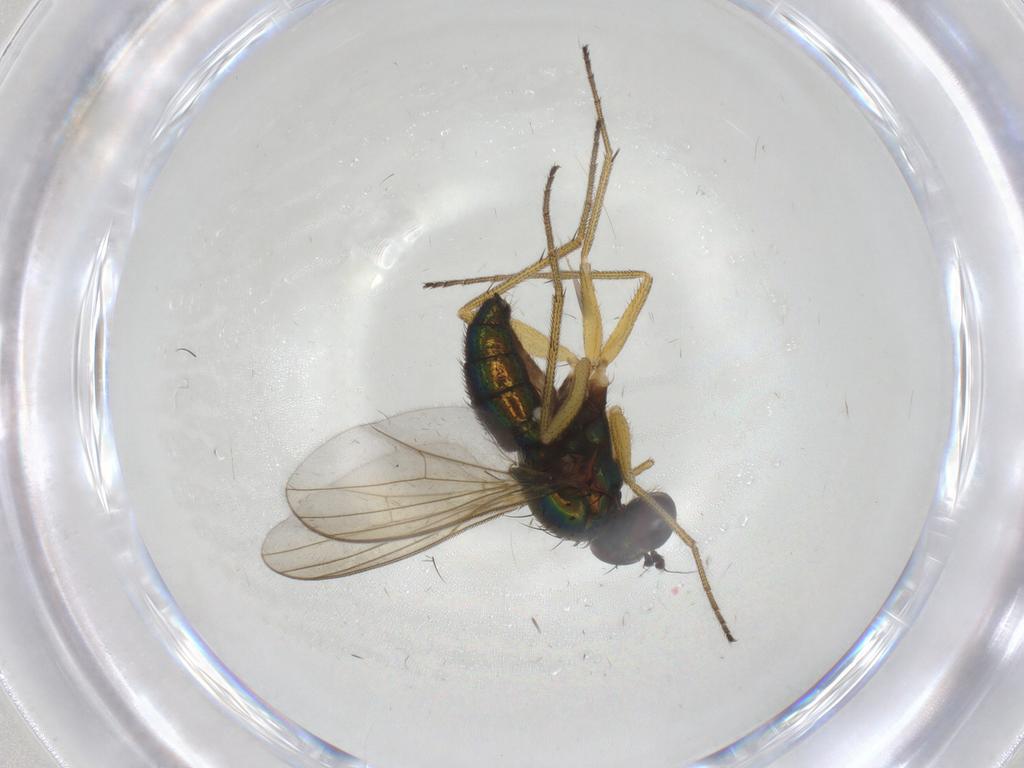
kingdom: Animalia
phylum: Arthropoda
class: Insecta
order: Diptera
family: Dolichopodidae
